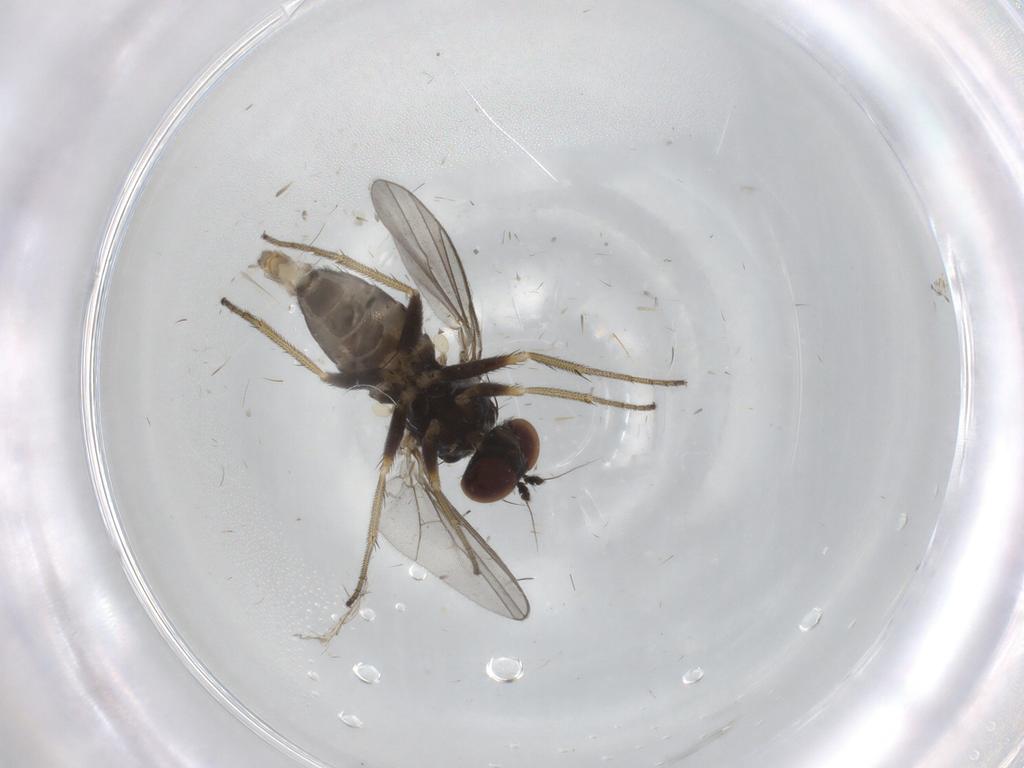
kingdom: Animalia
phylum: Arthropoda
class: Insecta
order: Diptera
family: Dolichopodidae
